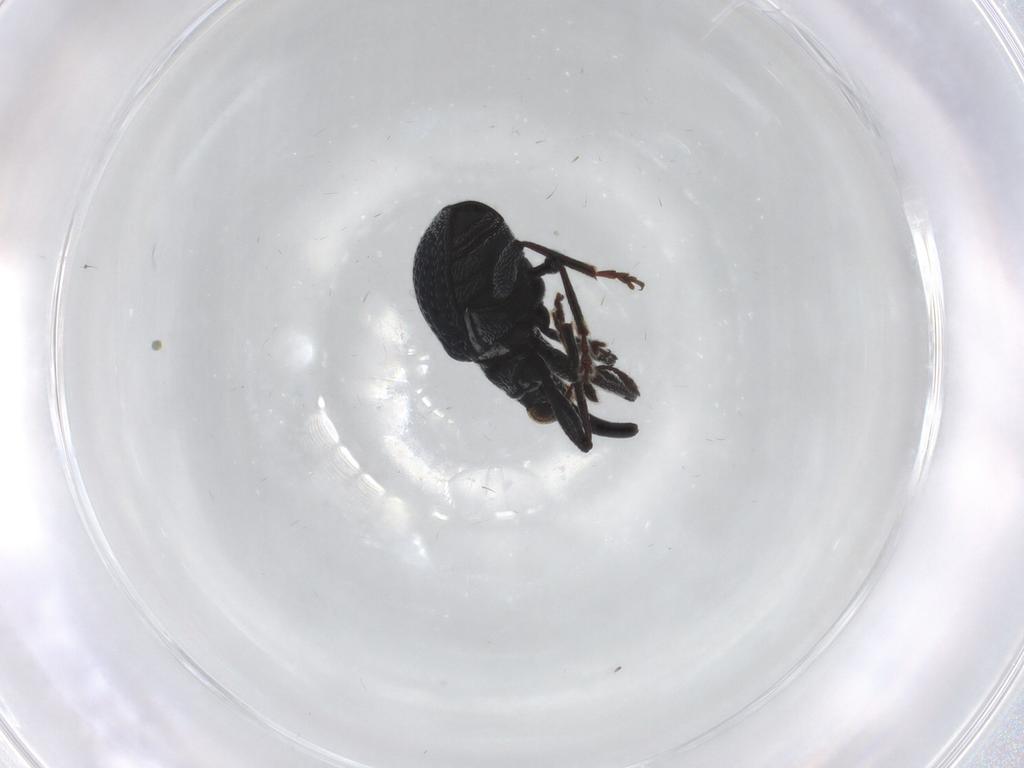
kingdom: Animalia
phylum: Arthropoda
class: Insecta
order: Coleoptera
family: Brentidae
